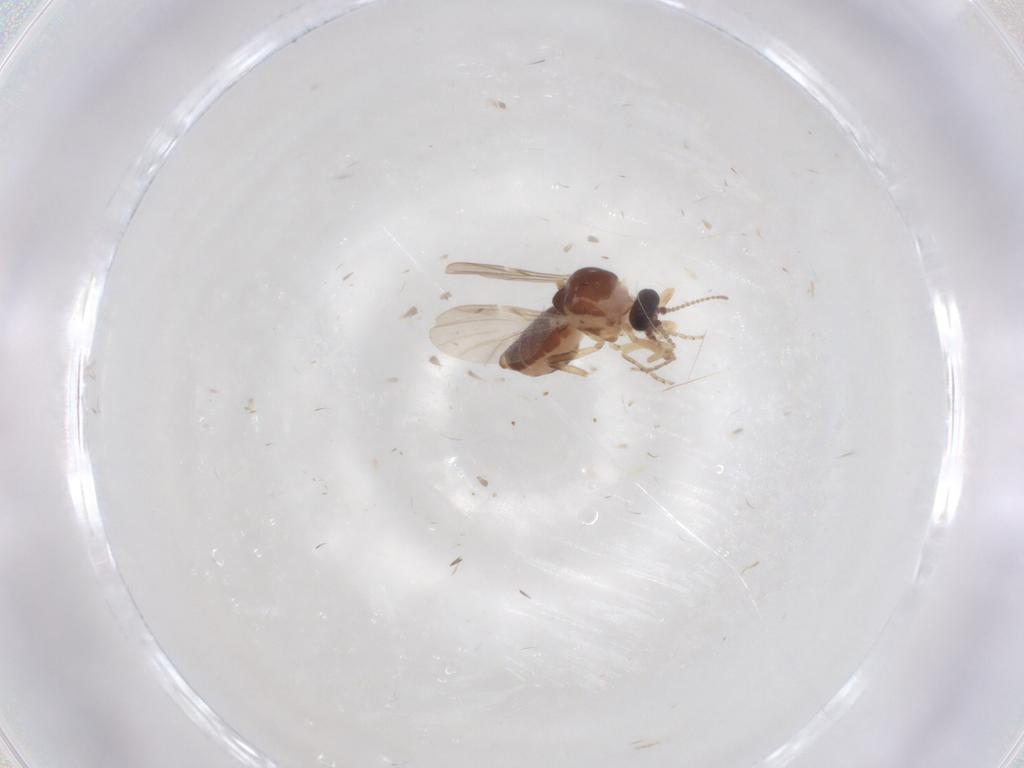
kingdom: Animalia
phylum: Arthropoda
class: Insecta
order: Diptera
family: Ceratopogonidae
